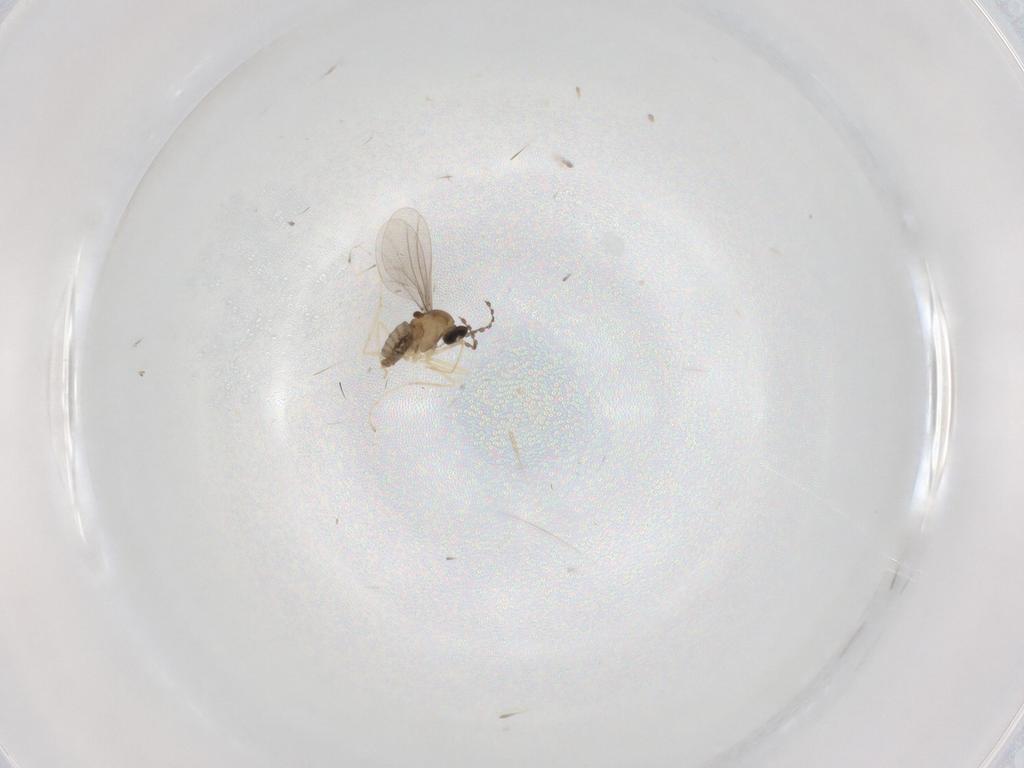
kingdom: Animalia
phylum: Arthropoda
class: Insecta
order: Diptera
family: Cecidomyiidae
